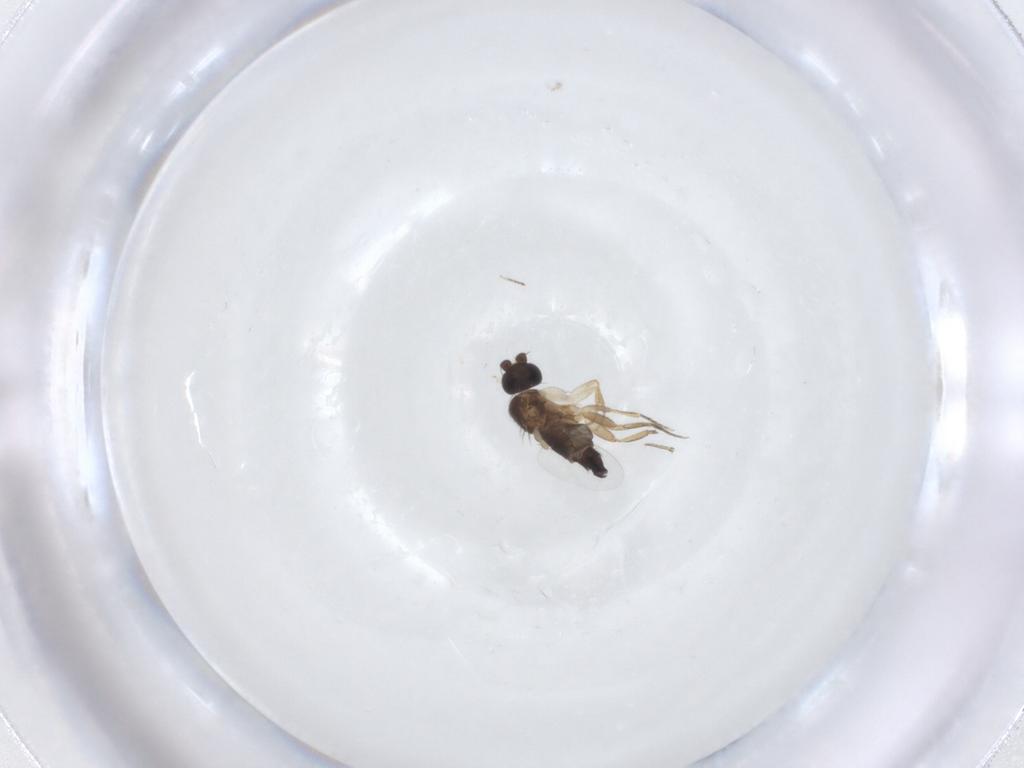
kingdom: Animalia
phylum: Arthropoda
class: Insecta
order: Diptera
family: Phoridae
